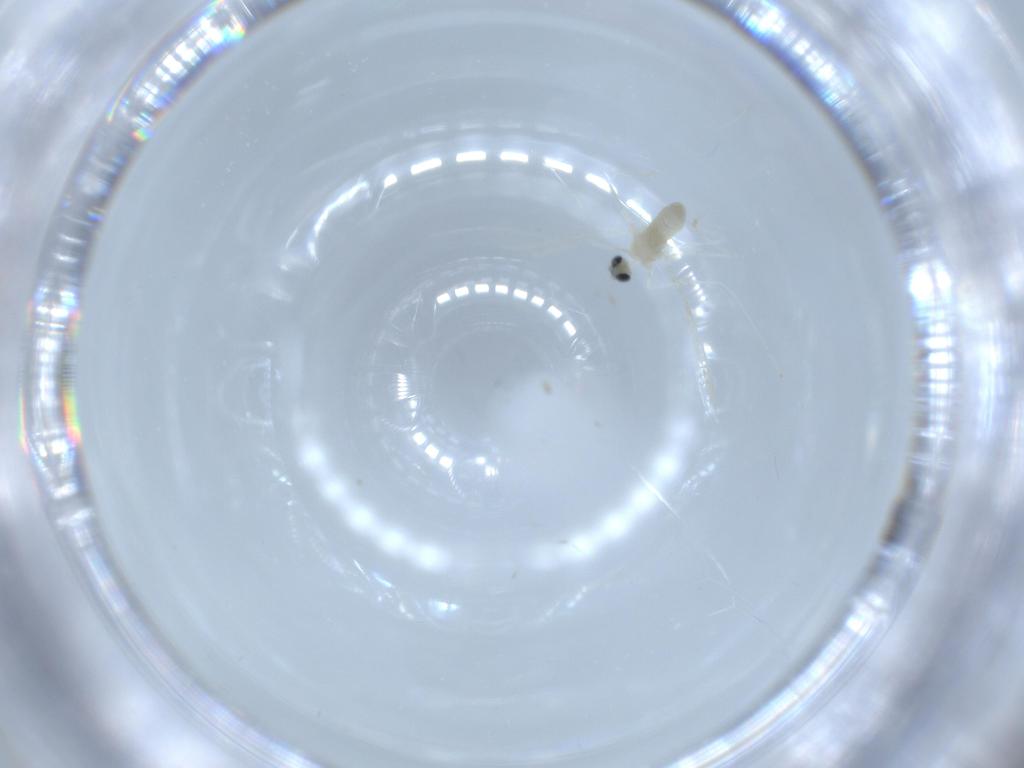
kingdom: Animalia
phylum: Arthropoda
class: Insecta
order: Diptera
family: Cecidomyiidae
